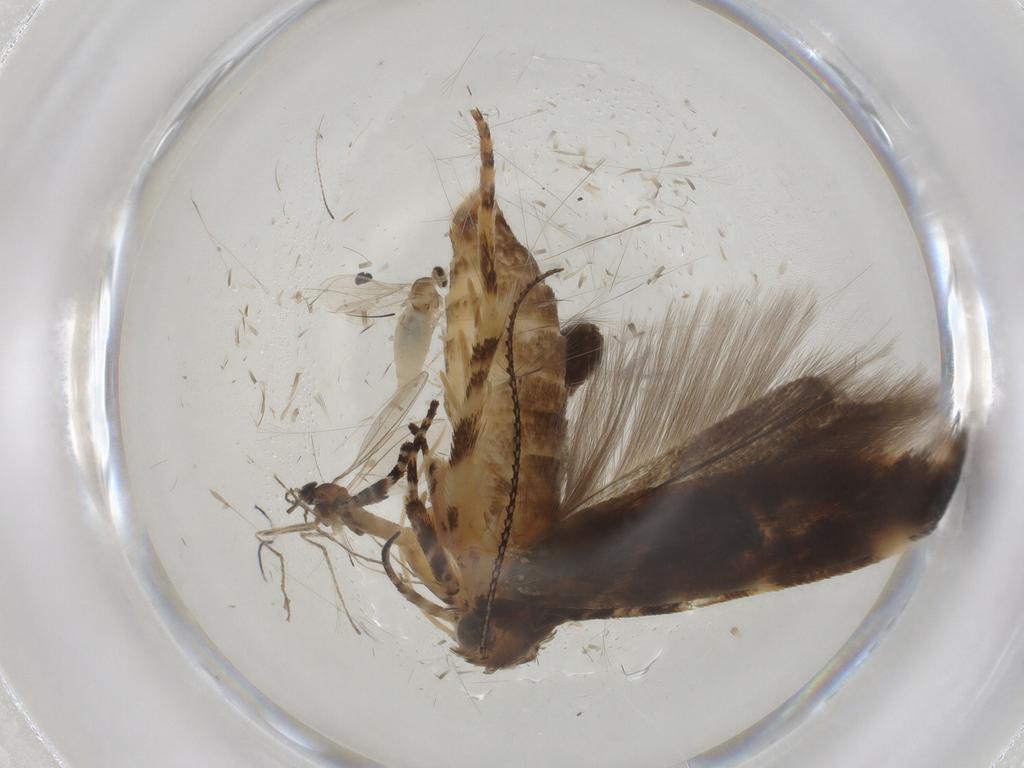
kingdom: Animalia
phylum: Arthropoda
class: Insecta
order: Lepidoptera
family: Gelechiidae
